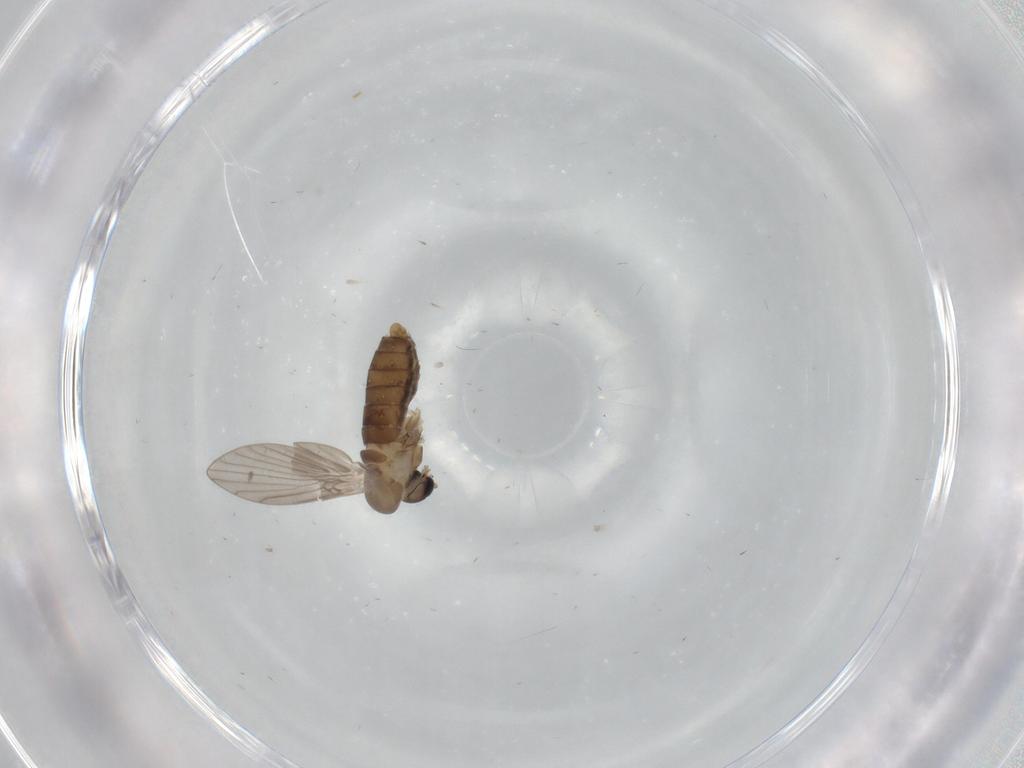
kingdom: Animalia
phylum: Arthropoda
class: Insecta
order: Diptera
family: Psychodidae
